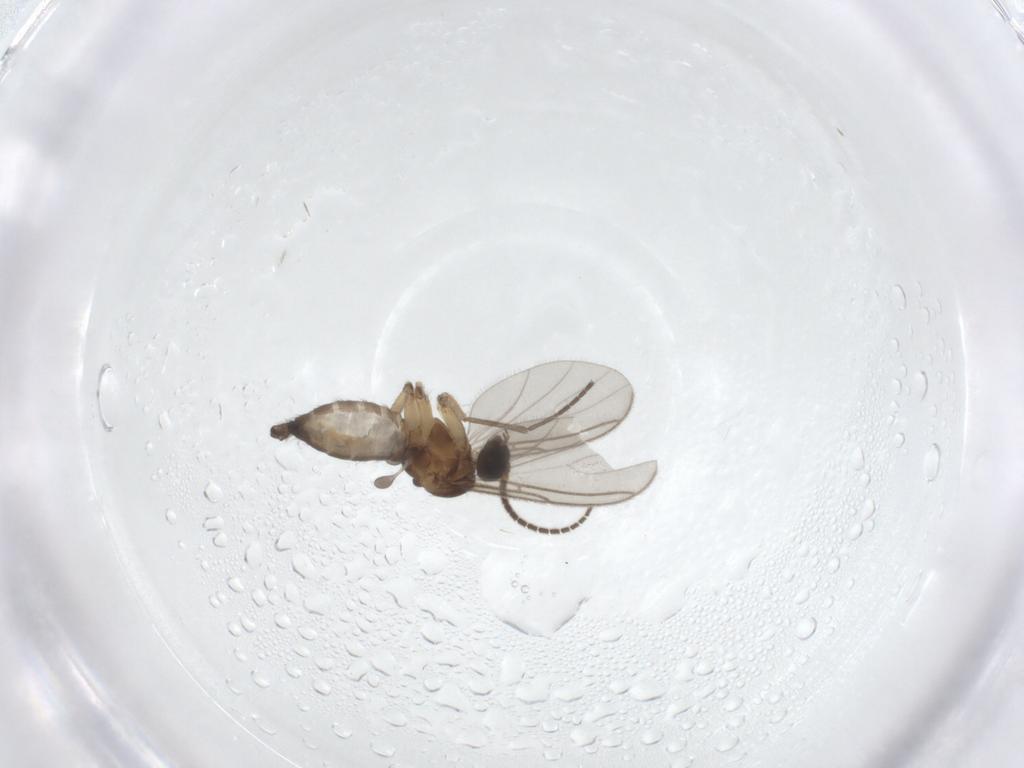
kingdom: Animalia
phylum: Arthropoda
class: Insecta
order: Diptera
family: Sciaridae
